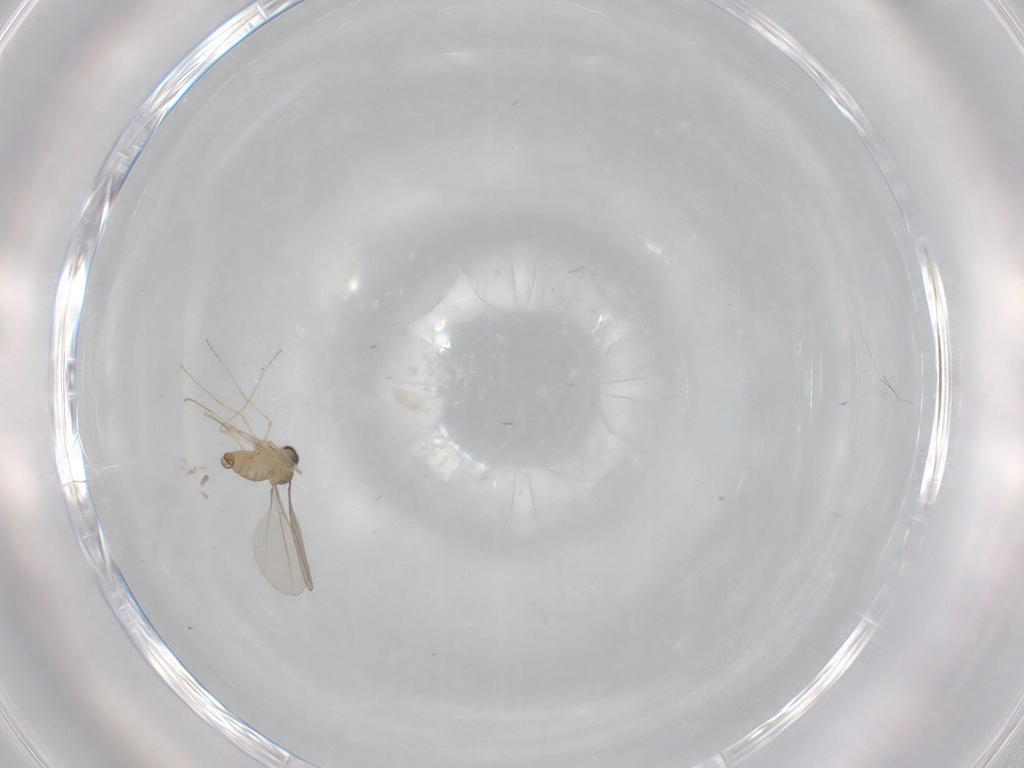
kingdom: Animalia
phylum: Arthropoda
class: Insecta
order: Diptera
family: Cecidomyiidae
